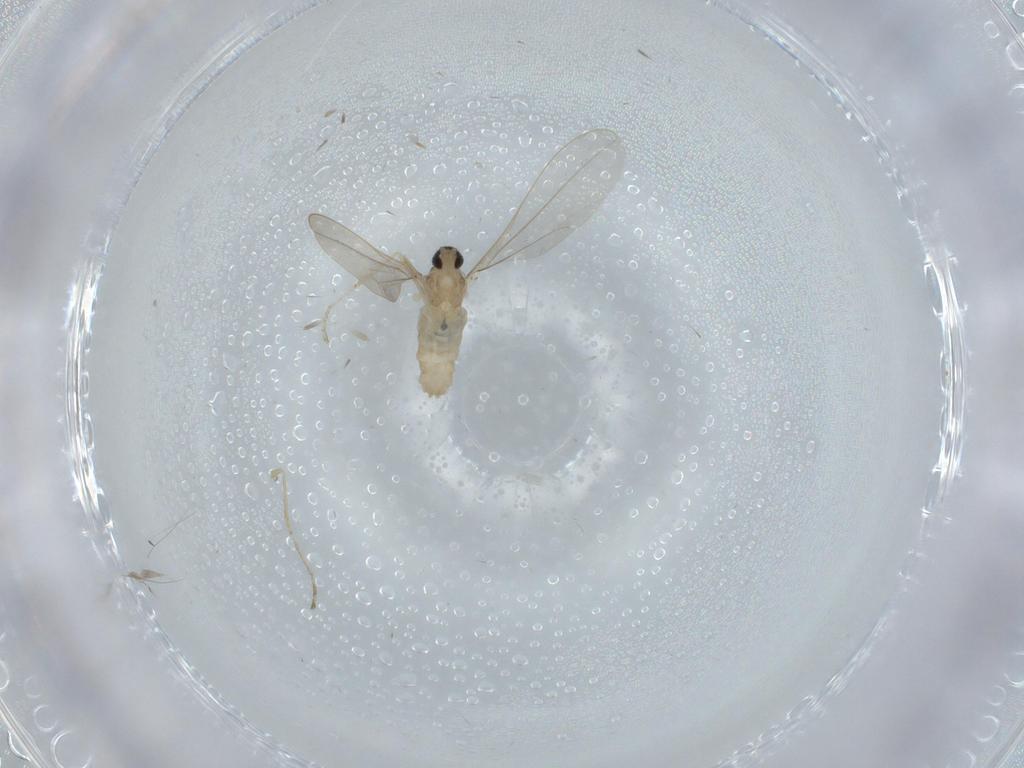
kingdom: Animalia
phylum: Arthropoda
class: Insecta
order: Diptera
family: Cecidomyiidae
